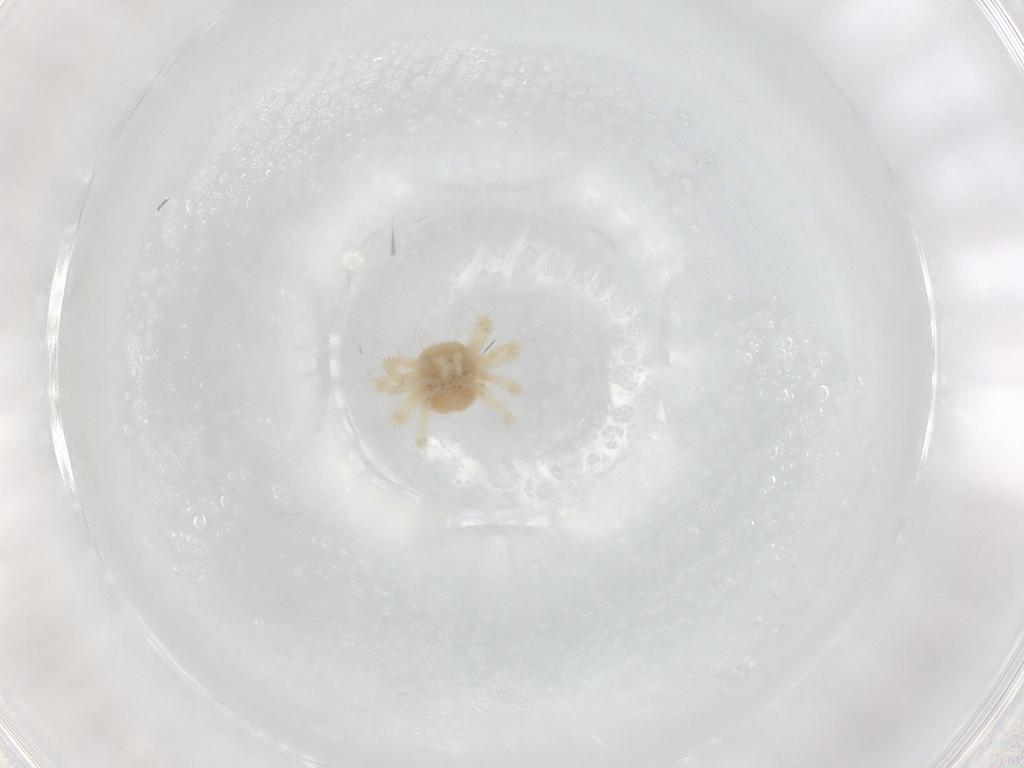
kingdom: Animalia
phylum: Arthropoda
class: Arachnida
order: Trombidiformes
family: Anystidae
